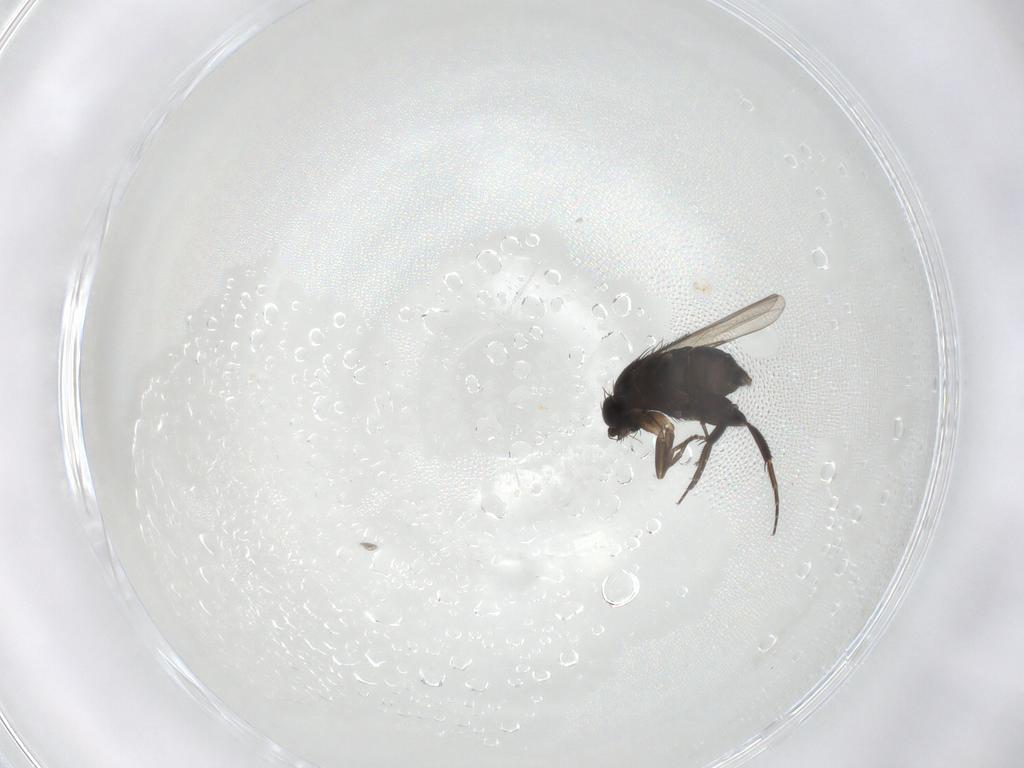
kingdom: Animalia
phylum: Arthropoda
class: Insecta
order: Diptera
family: Phoridae
